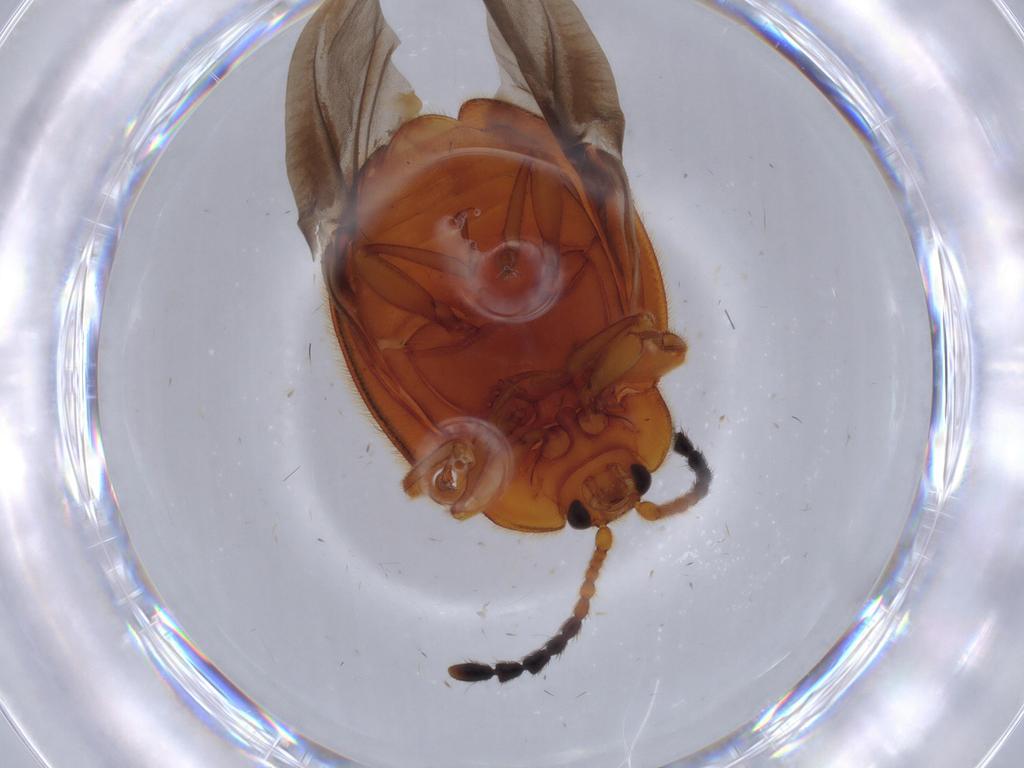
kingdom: Animalia
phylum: Arthropoda
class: Insecta
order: Coleoptera
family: Endomychidae
